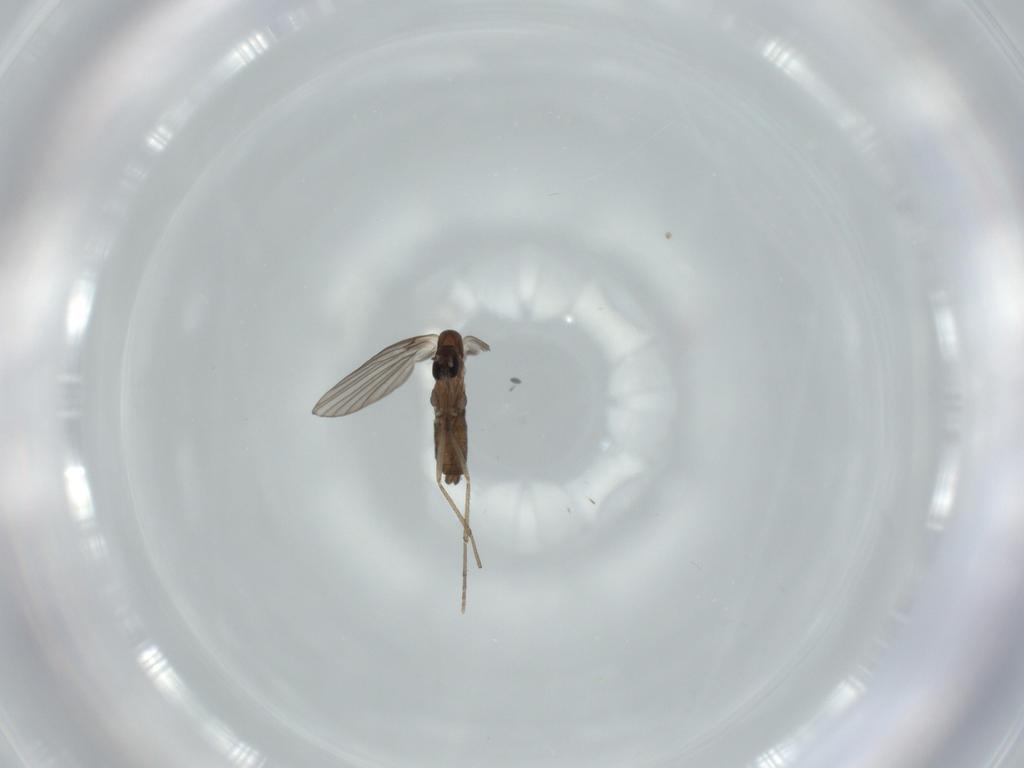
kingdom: Animalia
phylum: Arthropoda
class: Insecta
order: Diptera
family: Psychodidae
